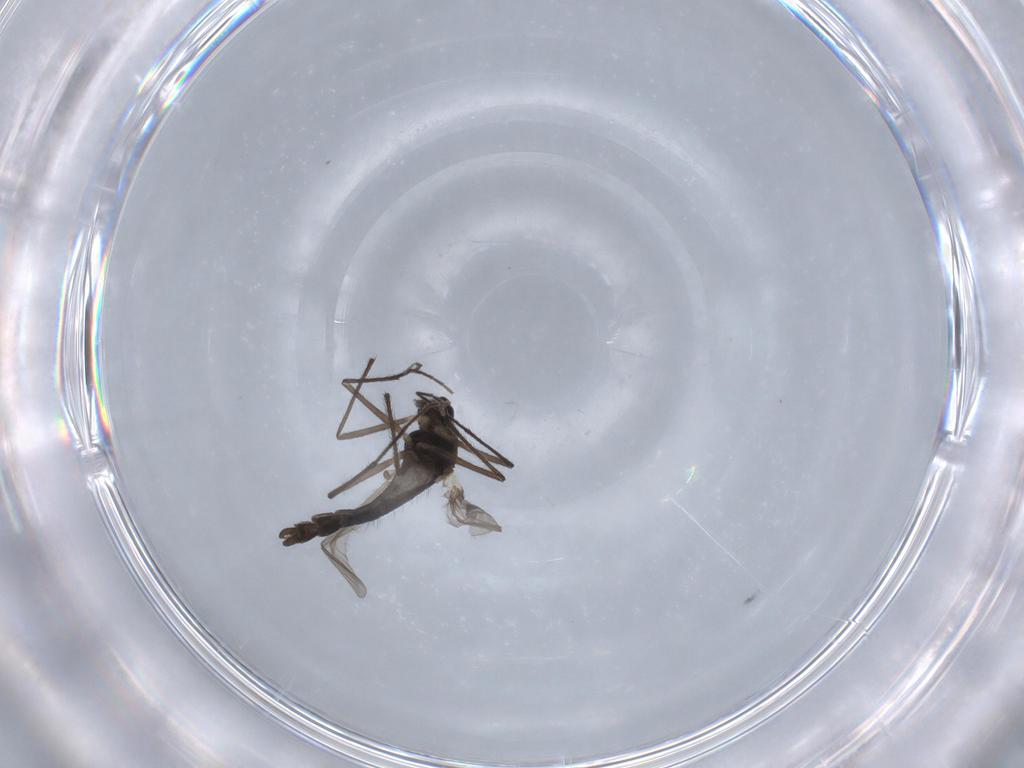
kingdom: Animalia
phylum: Arthropoda
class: Insecta
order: Diptera
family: Chironomidae
